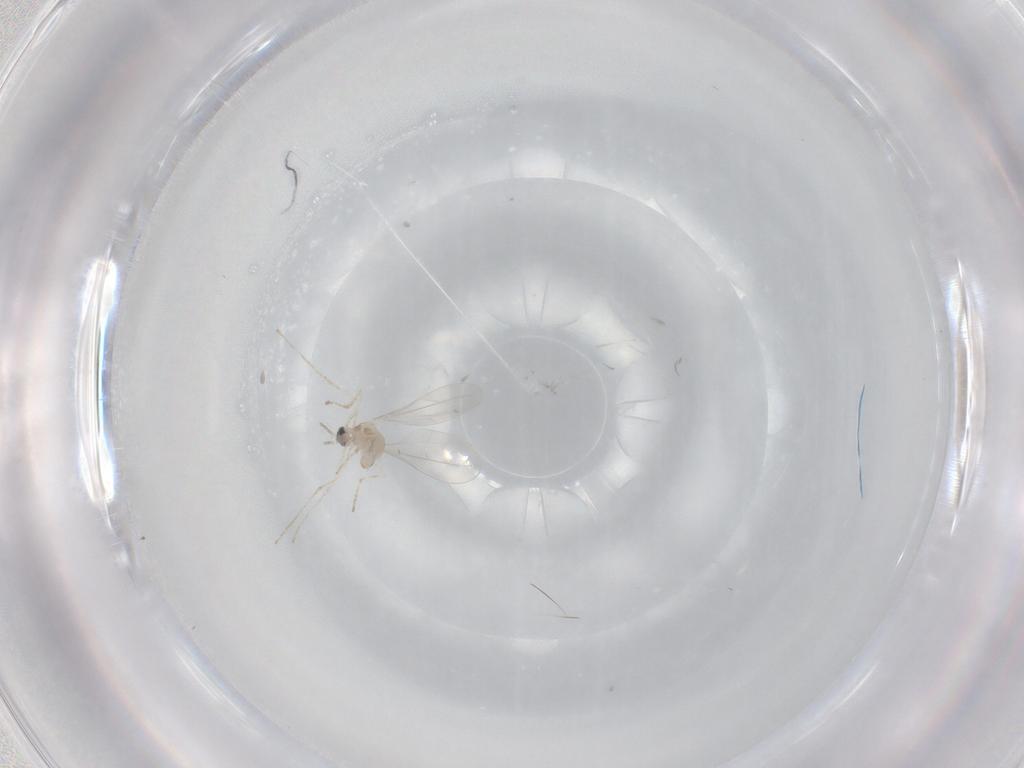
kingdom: Animalia
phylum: Arthropoda
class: Insecta
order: Diptera
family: Cecidomyiidae
